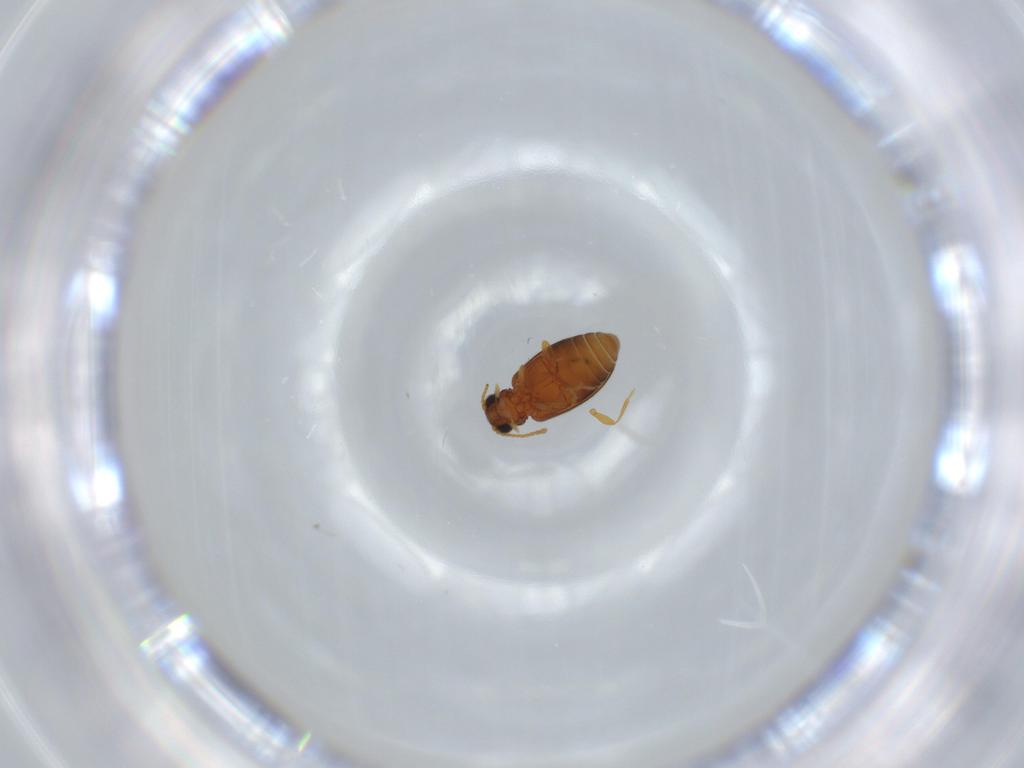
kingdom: Animalia
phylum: Arthropoda
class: Insecta
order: Coleoptera
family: Aderidae
